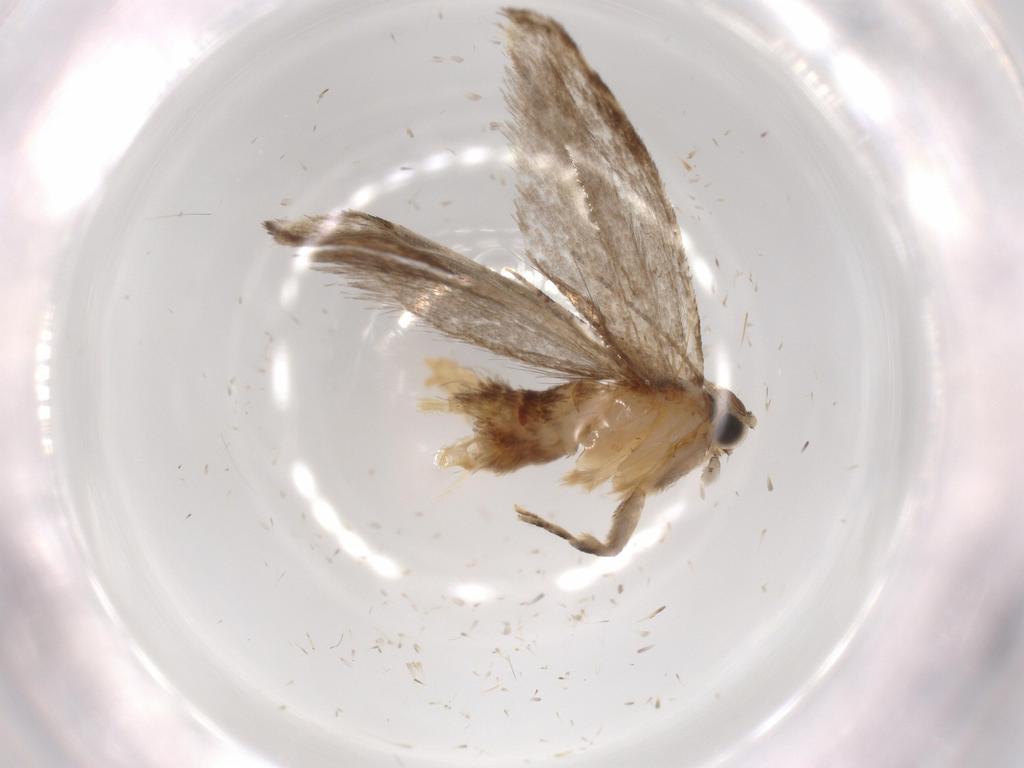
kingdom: Animalia
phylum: Arthropoda
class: Insecta
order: Lepidoptera
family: Tineidae
